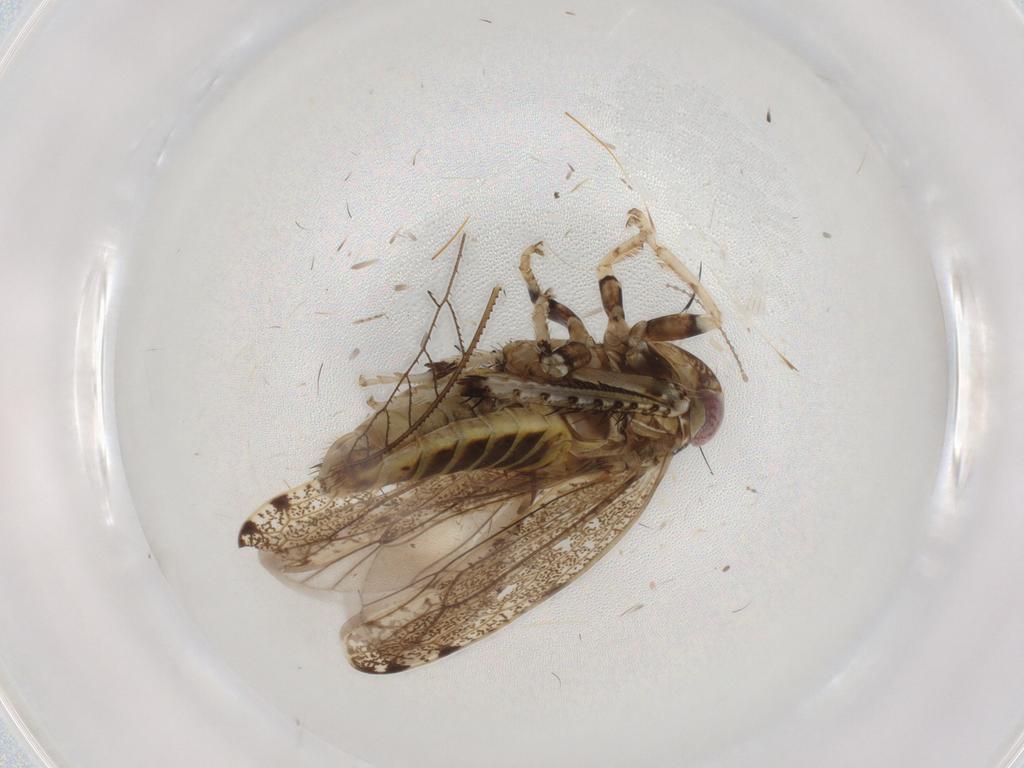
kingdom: Animalia
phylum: Arthropoda
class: Insecta
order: Hemiptera
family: Cicadellidae
